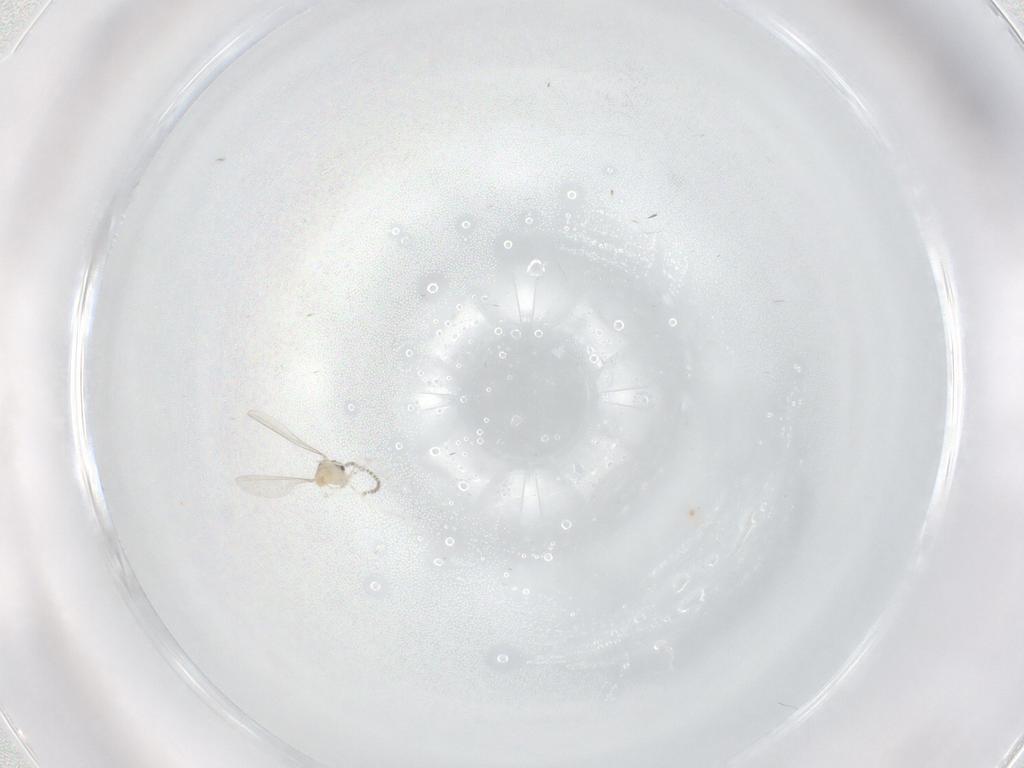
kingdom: Animalia
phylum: Arthropoda
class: Insecta
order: Diptera
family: Cecidomyiidae
